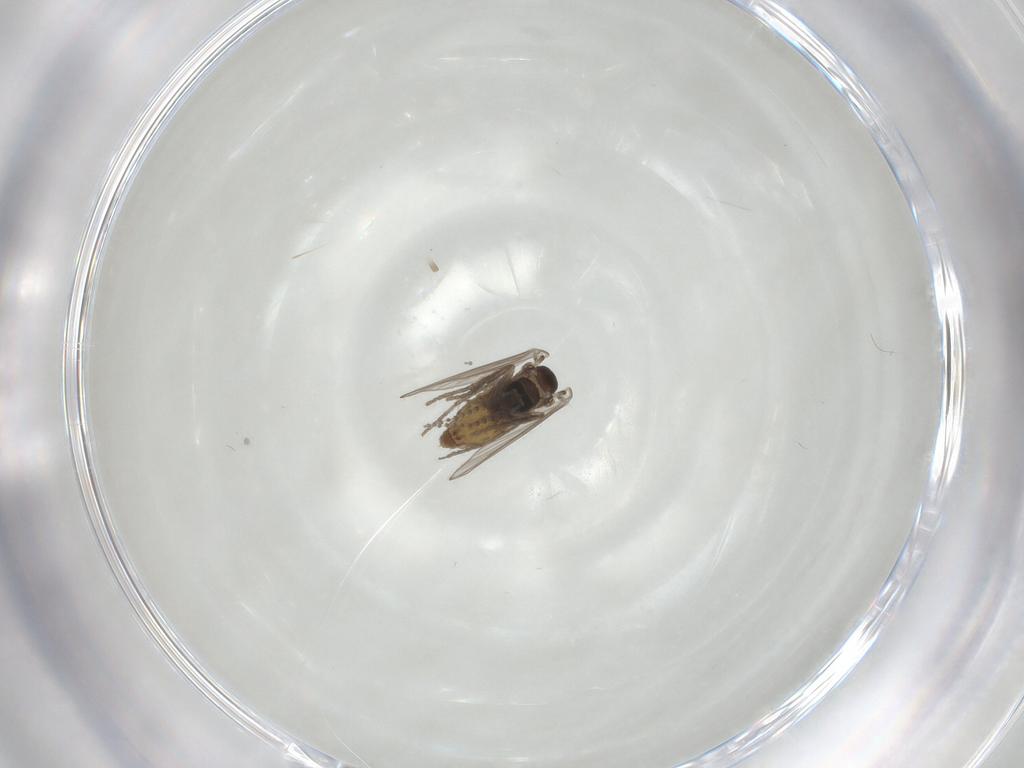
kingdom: Animalia
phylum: Arthropoda
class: Insecta
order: Diptera
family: Psychodidae
